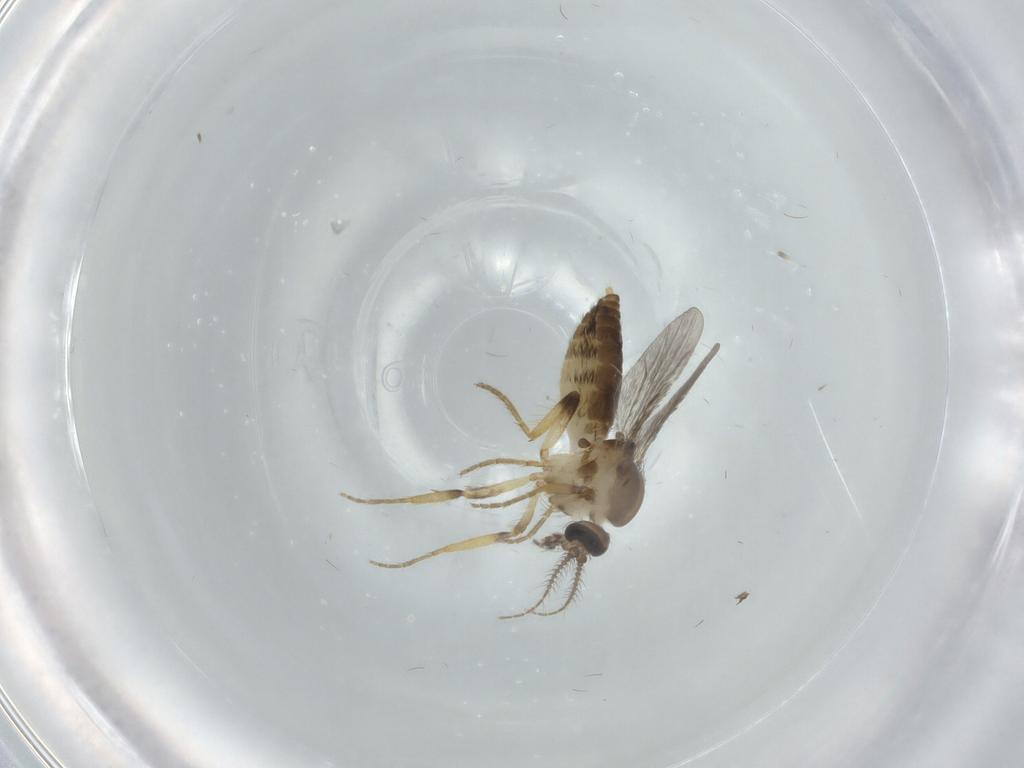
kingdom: Animalia
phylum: Arthropoda
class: Insecta
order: Diptera
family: Ceratopogonidae
